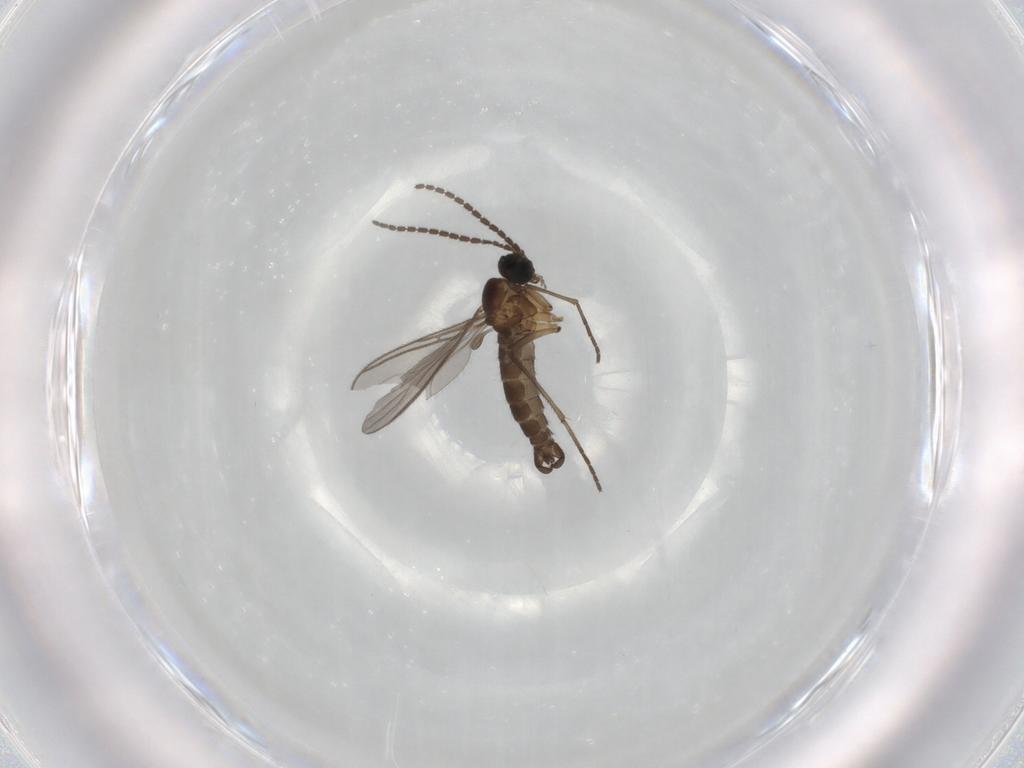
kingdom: Animalia
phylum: Arthropoda
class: Insecta
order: Diptera
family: Sciaridae
